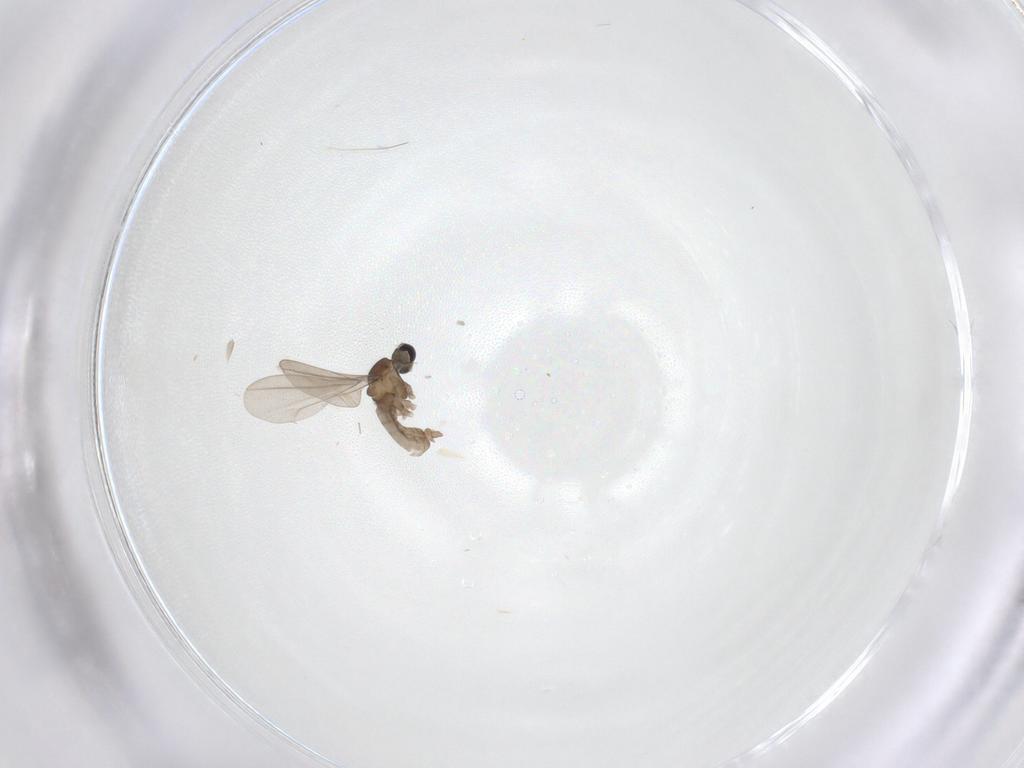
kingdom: Animalia
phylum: Arthropoda
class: Insecta
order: Diptera
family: Cecidomyiidae
